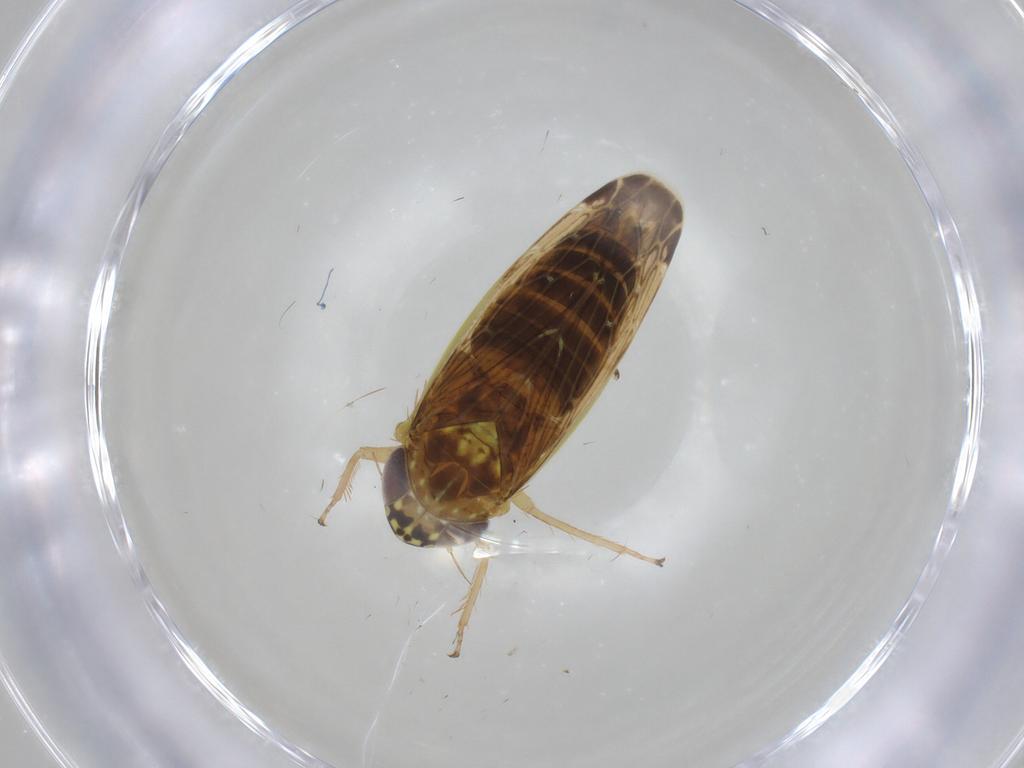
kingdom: Animalia
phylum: Arthropoda
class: Insecta
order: Hemiptera
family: Cicadellidae
